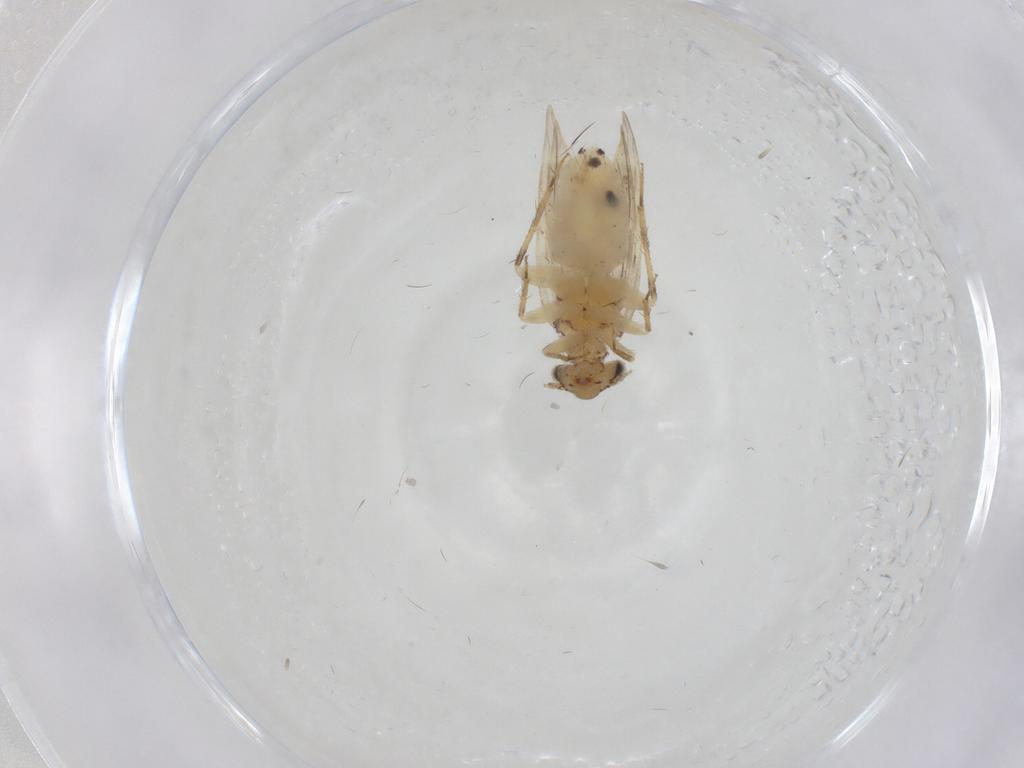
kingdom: Animalia
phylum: Arthropoda
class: Insecta
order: Psocodea
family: Lepidopsocidae
